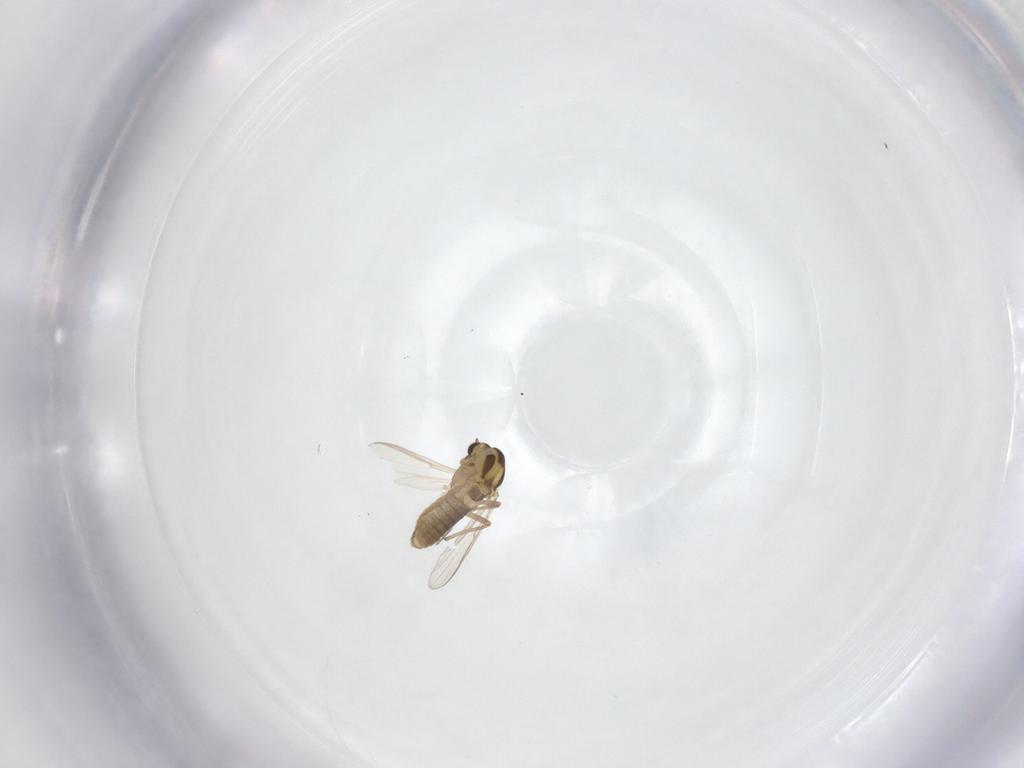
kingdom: Animalia
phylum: Arthropoda
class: Insecta
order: Diptera
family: Chironomidae
